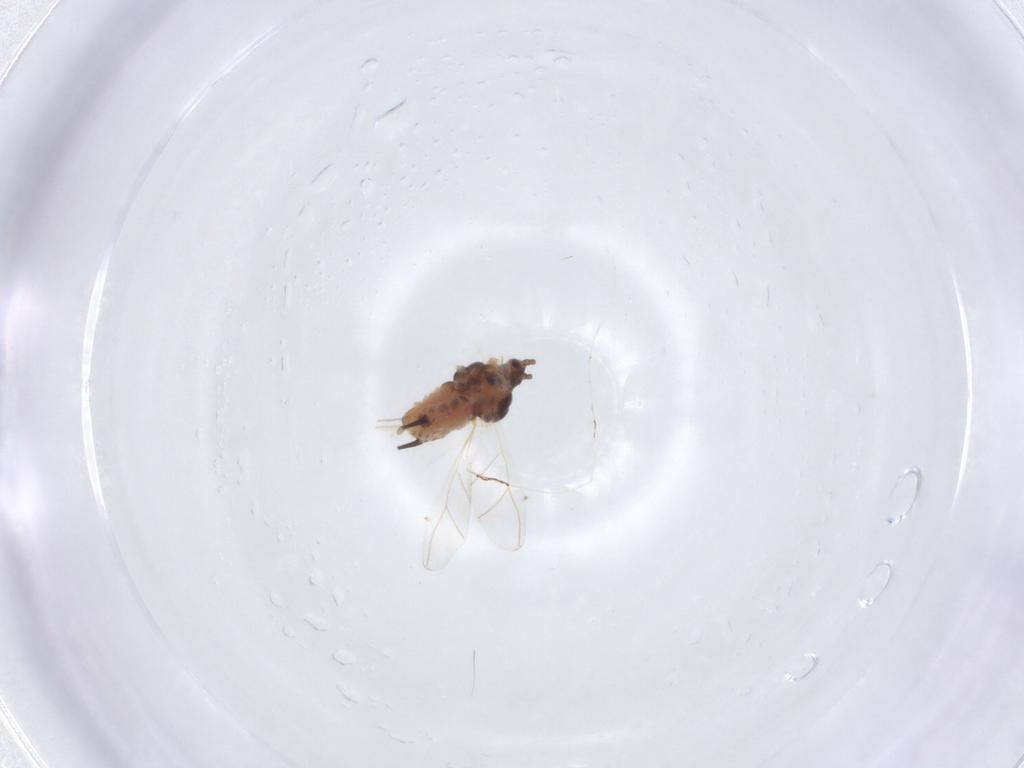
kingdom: Animalia
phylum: Arthropoda
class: Insecta
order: Hemiptera
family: Aphididae
